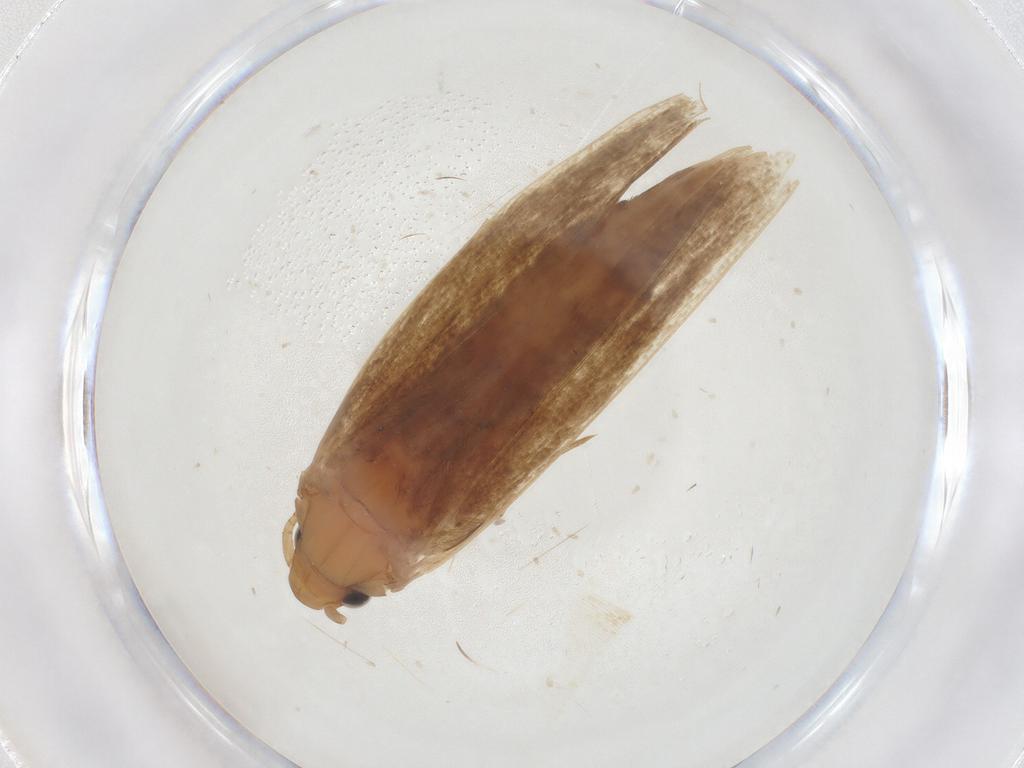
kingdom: Animalia
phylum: Arthropoda
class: Insecta
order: Lepidoptera
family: Tineidae
